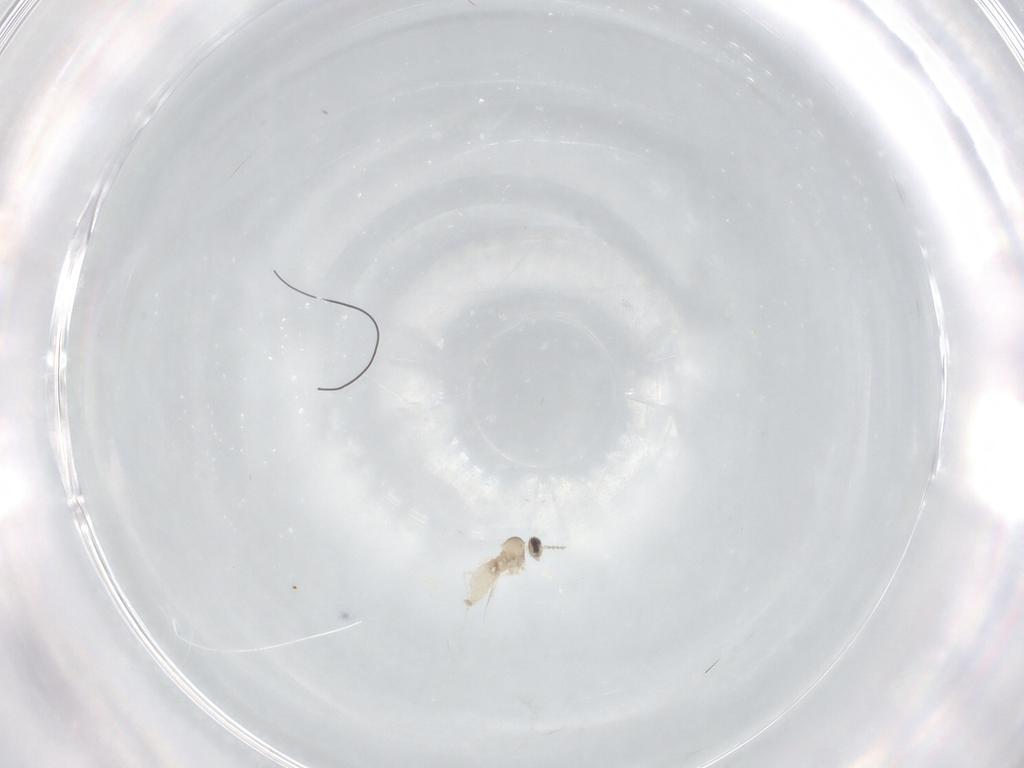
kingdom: Animalia
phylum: Arthropoda
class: Insecta
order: Diptera
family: Cecidomyiidae
